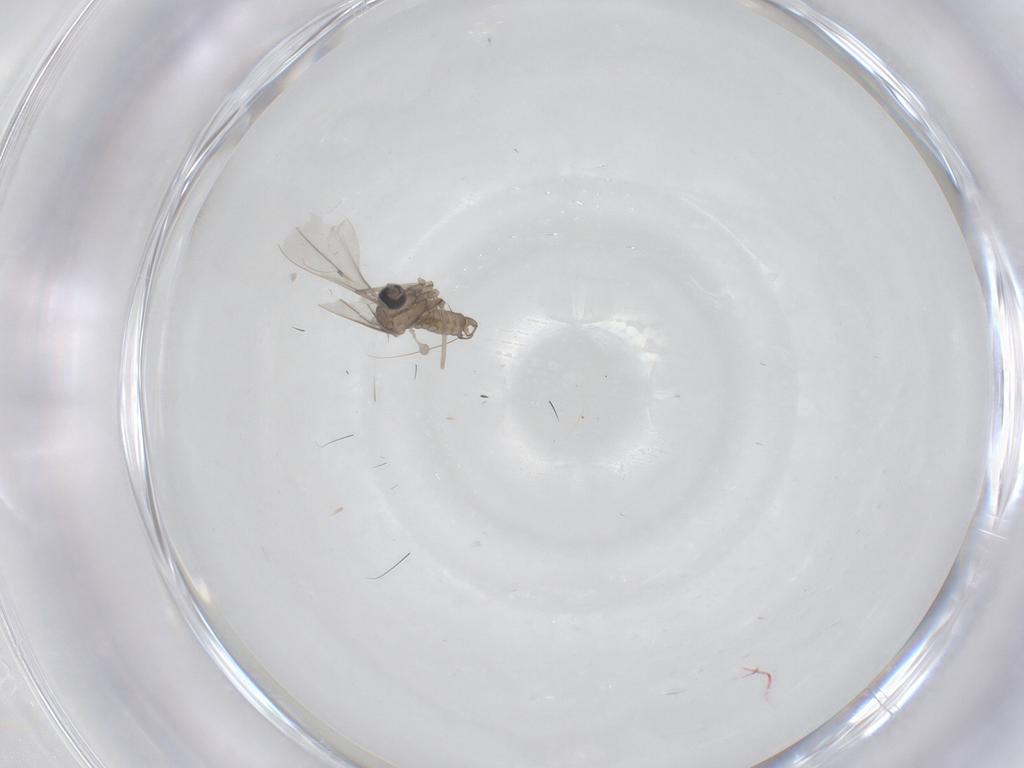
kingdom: Animalia
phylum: Arthropoda
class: Insecta
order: Diptera
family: Cecidomyiidae
